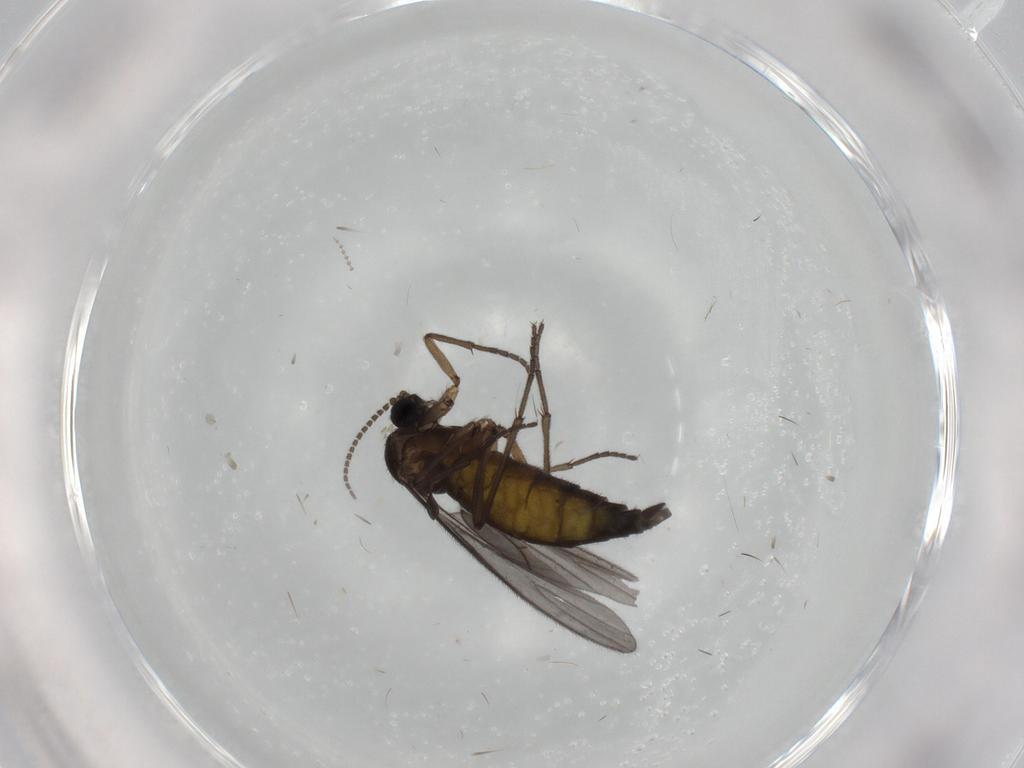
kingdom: Animalia
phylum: Arthropoda
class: Insecta
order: Diptera
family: Sciaridae
